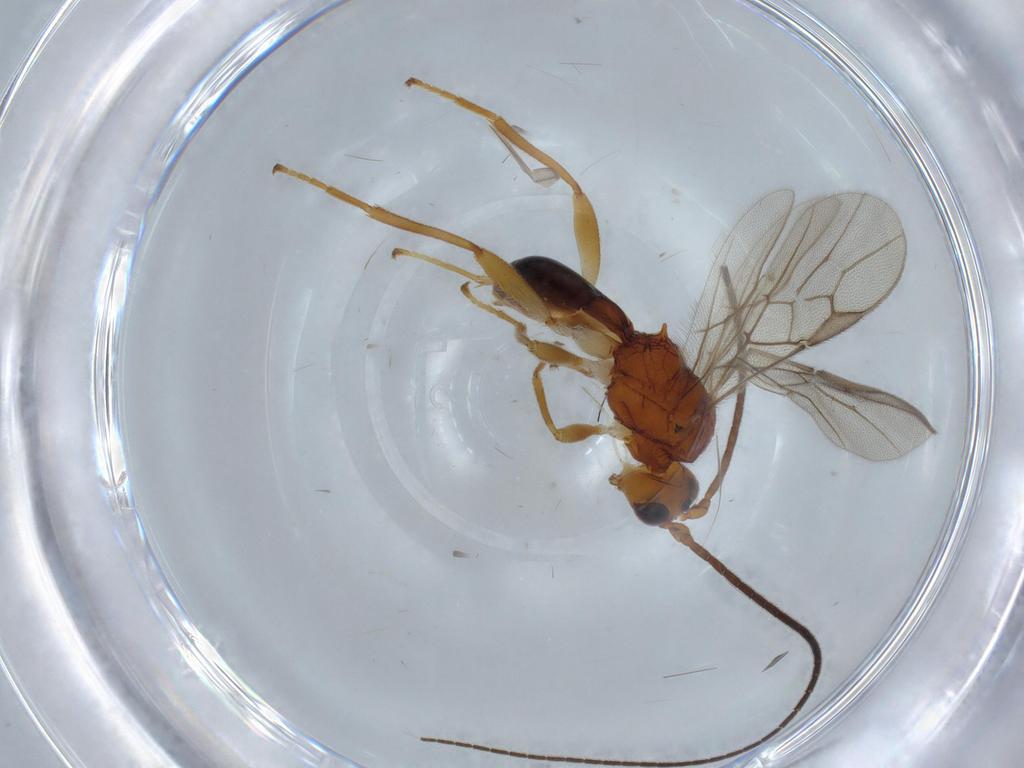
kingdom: Animalia
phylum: Arthropoda
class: Insecta
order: Hymenoptera
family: Braconidae
